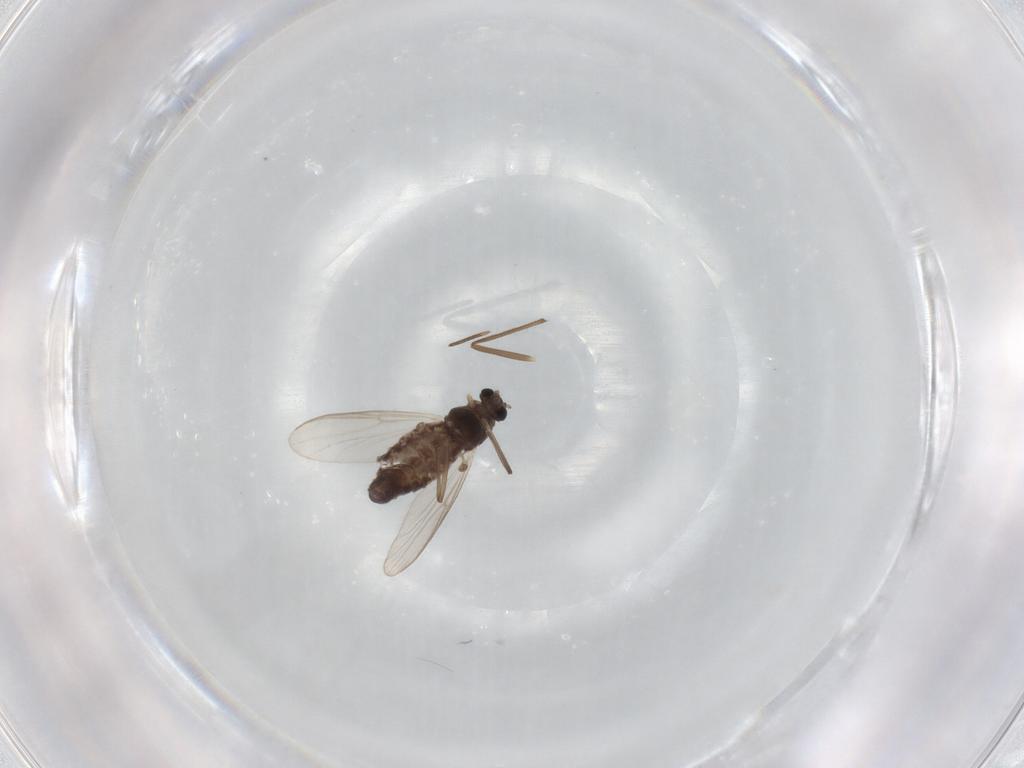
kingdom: Animalia
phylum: Arthropoda
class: Insecta
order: Diptera
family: Chironomidae
